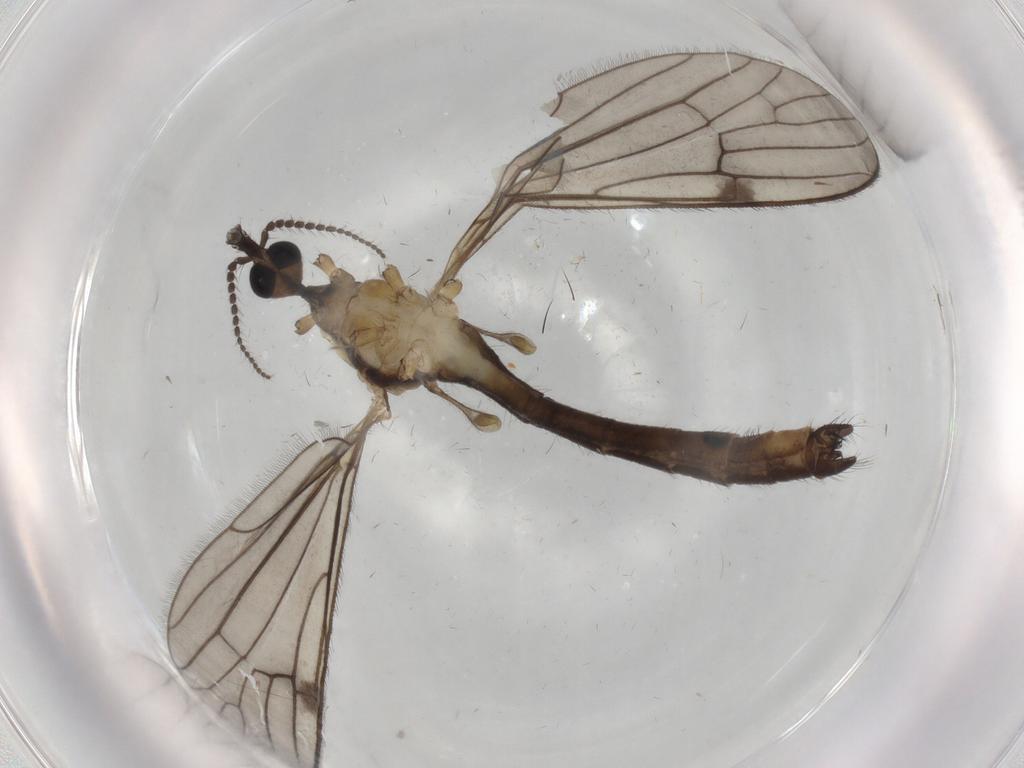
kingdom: Animalia
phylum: Arthropoda
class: Insecta
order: Diptera
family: Limoniidae
